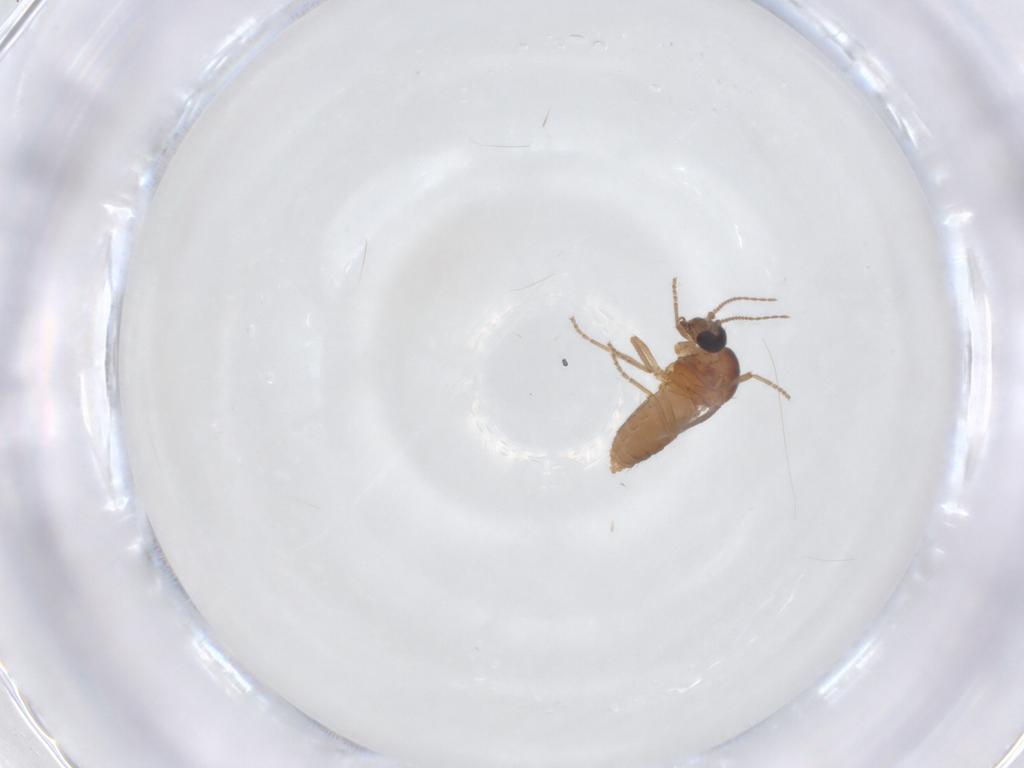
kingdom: Animalia
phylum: Arthropoda
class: Insecta
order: Diptera
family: Ceratopogonidae
